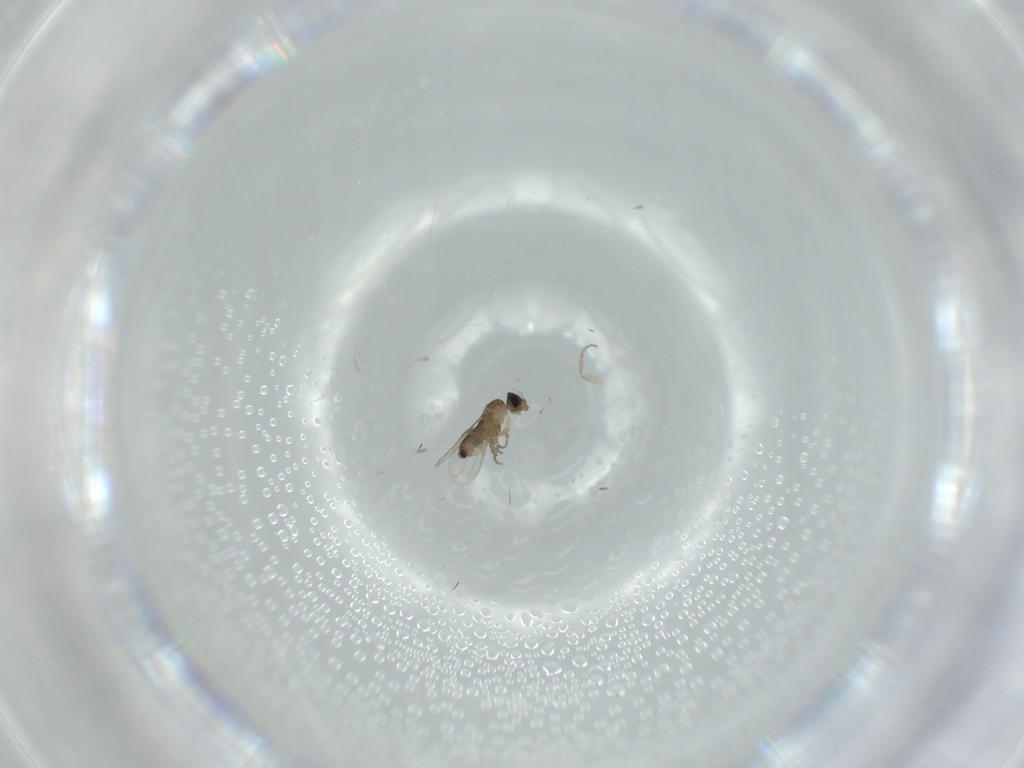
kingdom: Animalia
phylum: Arthropoda
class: Insecta
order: Diptera
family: Phoridae
